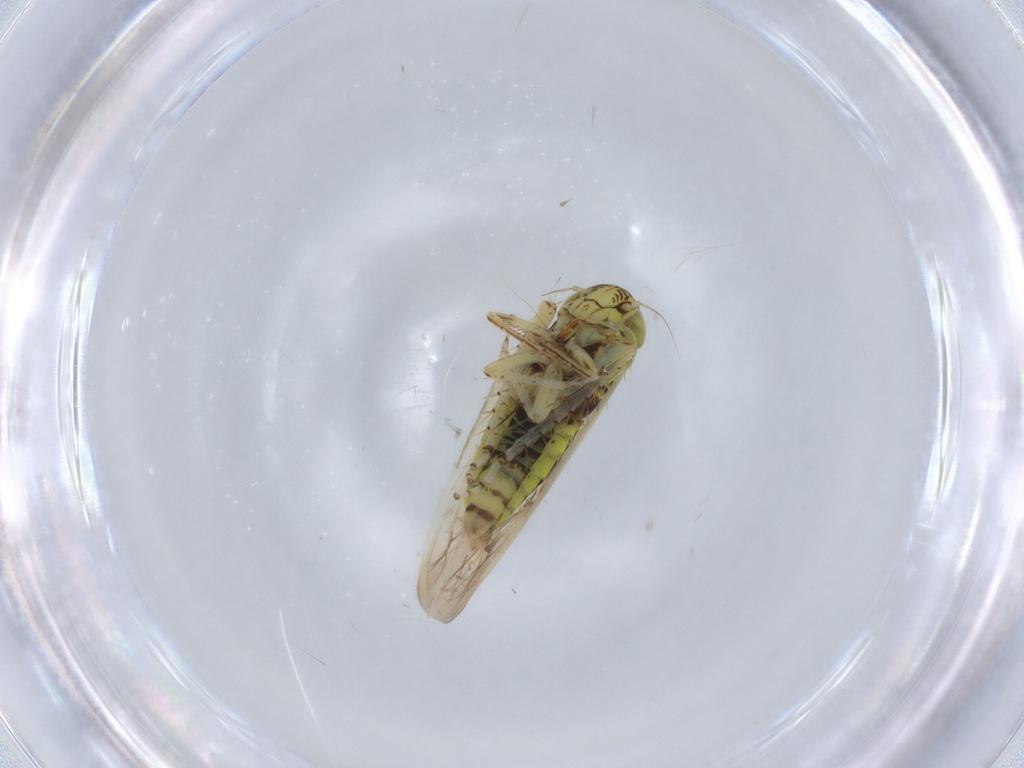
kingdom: Animalia
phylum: Arthropoda
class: Insecta
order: Hemiptera
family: Cicadellidae
